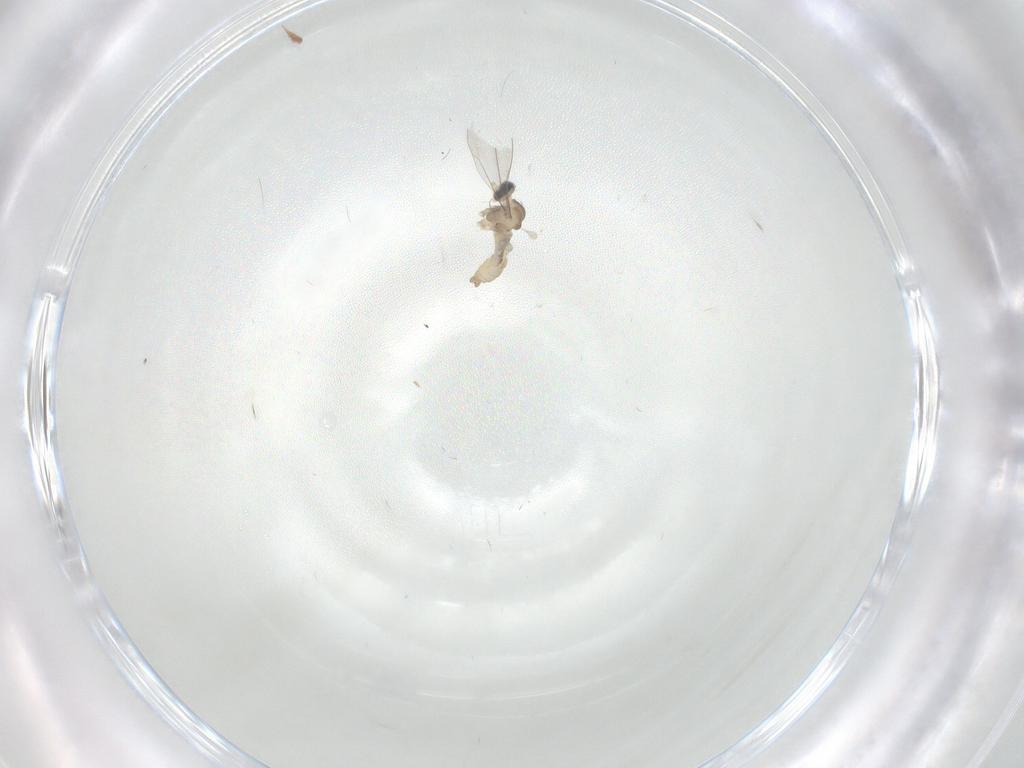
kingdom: Animalia
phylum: Arthropoda
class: Insecta
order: Diptera
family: Cecidomyiidae
